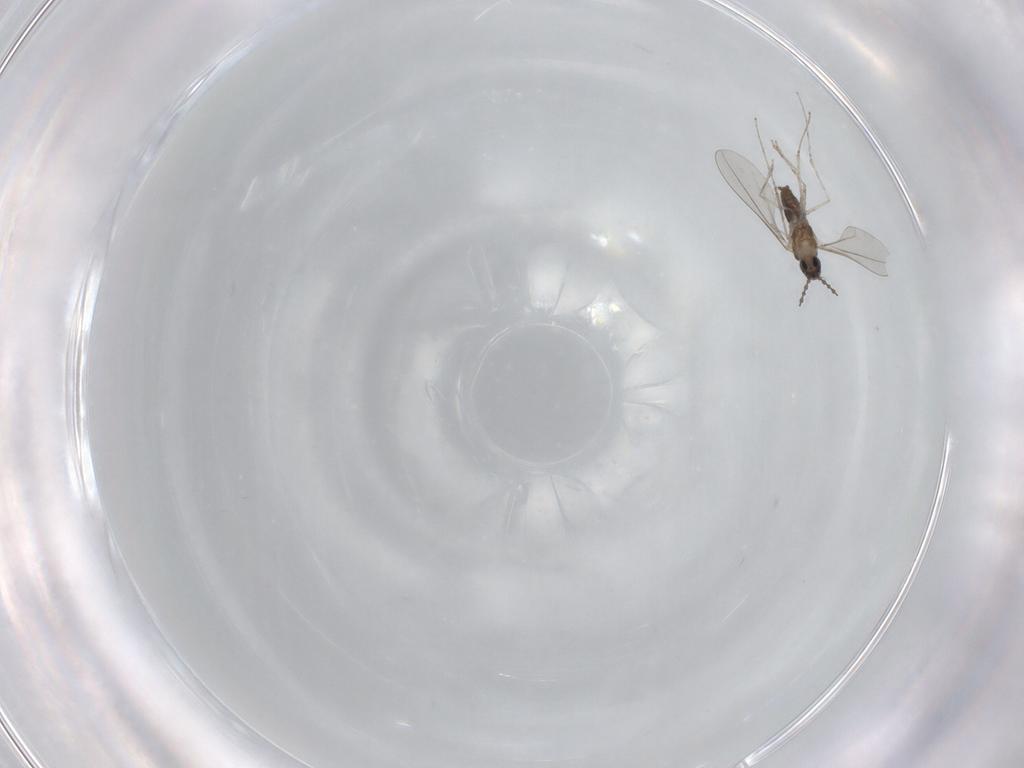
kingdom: Animalia
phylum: Arthropoda
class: Insecta
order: Diptera
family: Cecidomyiidae
